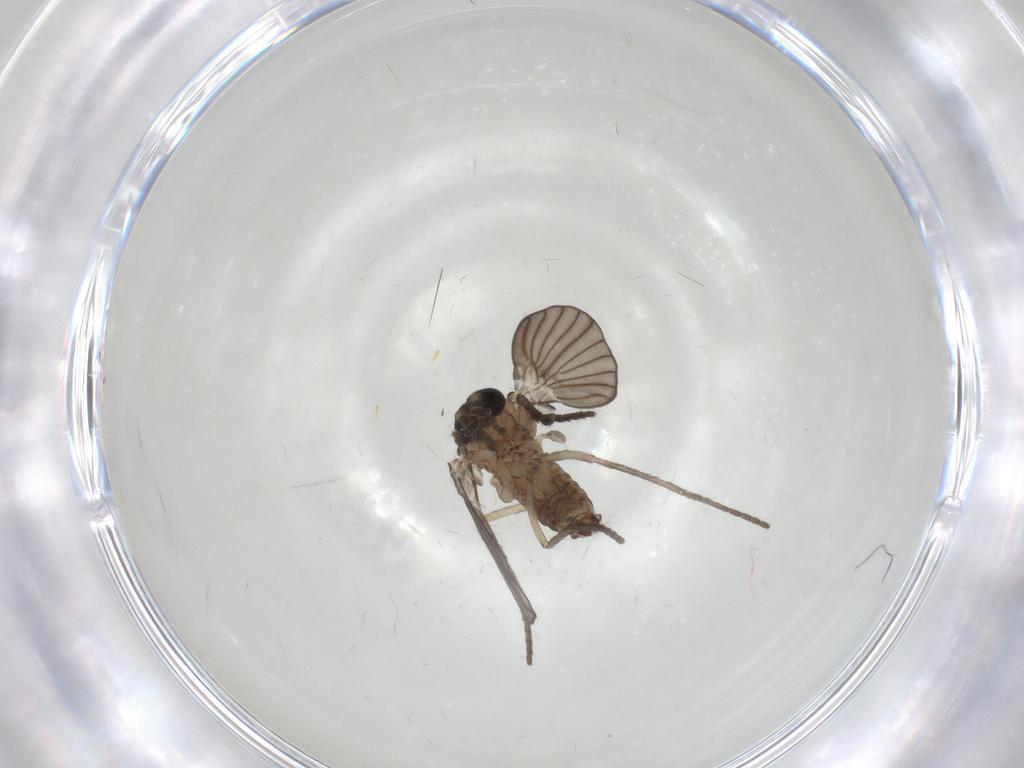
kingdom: Animalia
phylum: Arthropoda
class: Insecta
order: Diptera
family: Psychodidae
